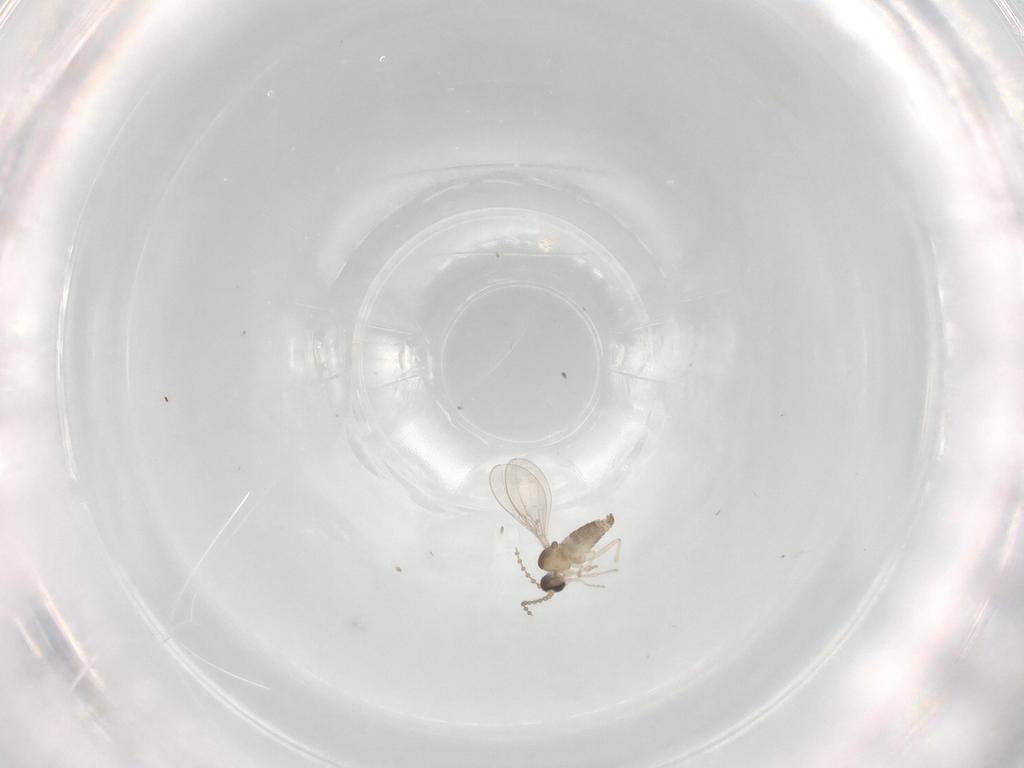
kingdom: Animalia
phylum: Arthropoda
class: Insecta
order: Diptera
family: Cecidomyiidae
